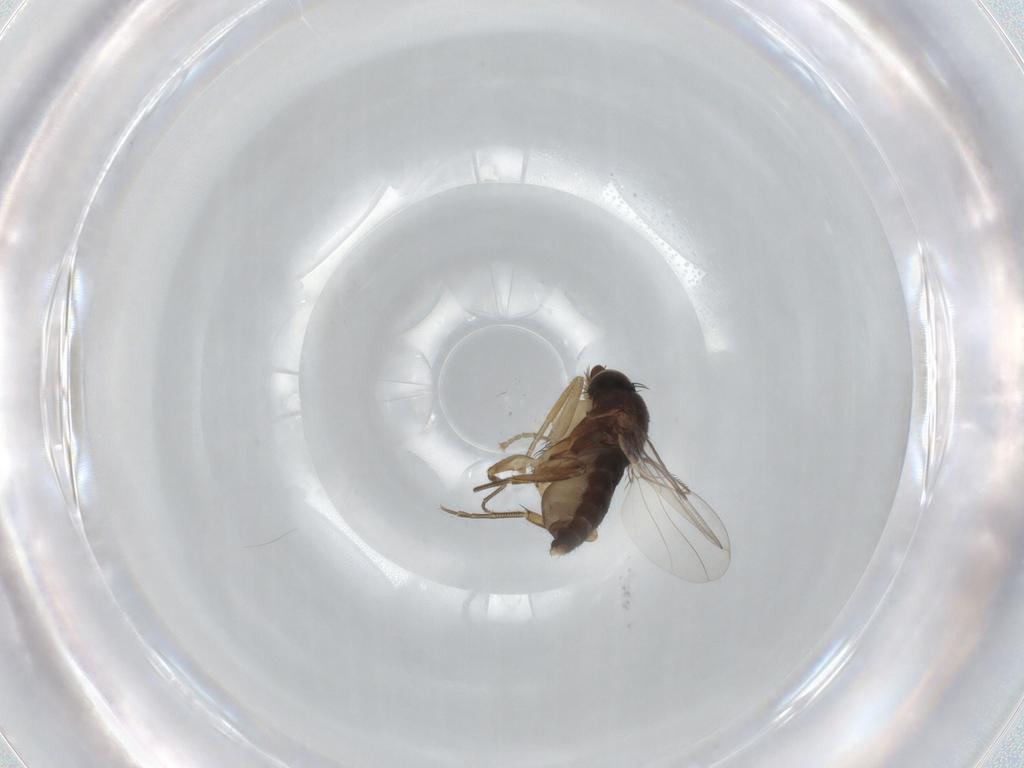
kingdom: Animalia
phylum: Arthropoda
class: Insecta
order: Diptera
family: Phoridae
